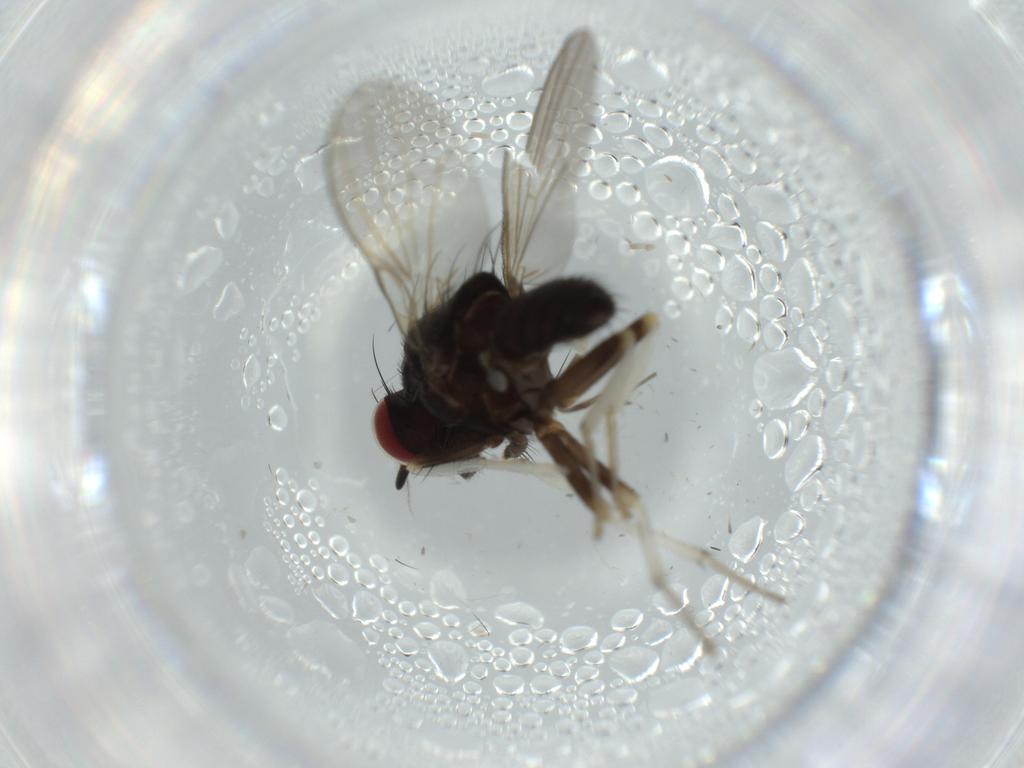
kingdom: Animalia
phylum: Arthropoda
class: Insecta
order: Diptera
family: Lauxaniidae
